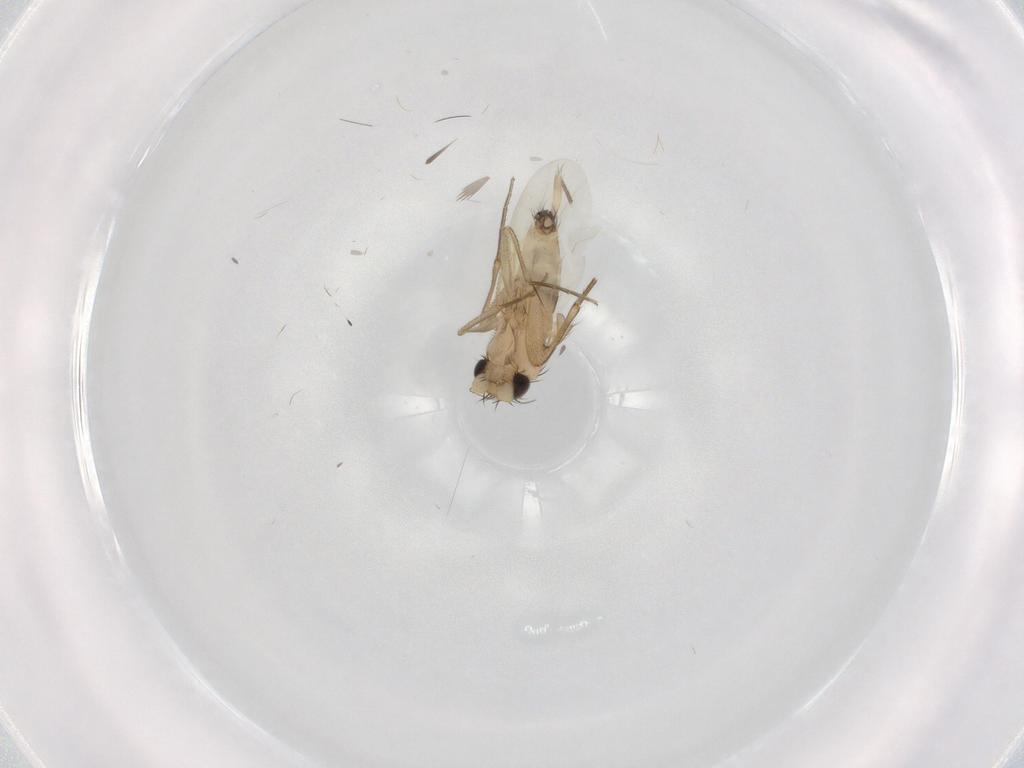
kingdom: Animalia
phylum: Arthropoda
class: Insecta
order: Diptera
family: Phoridae
